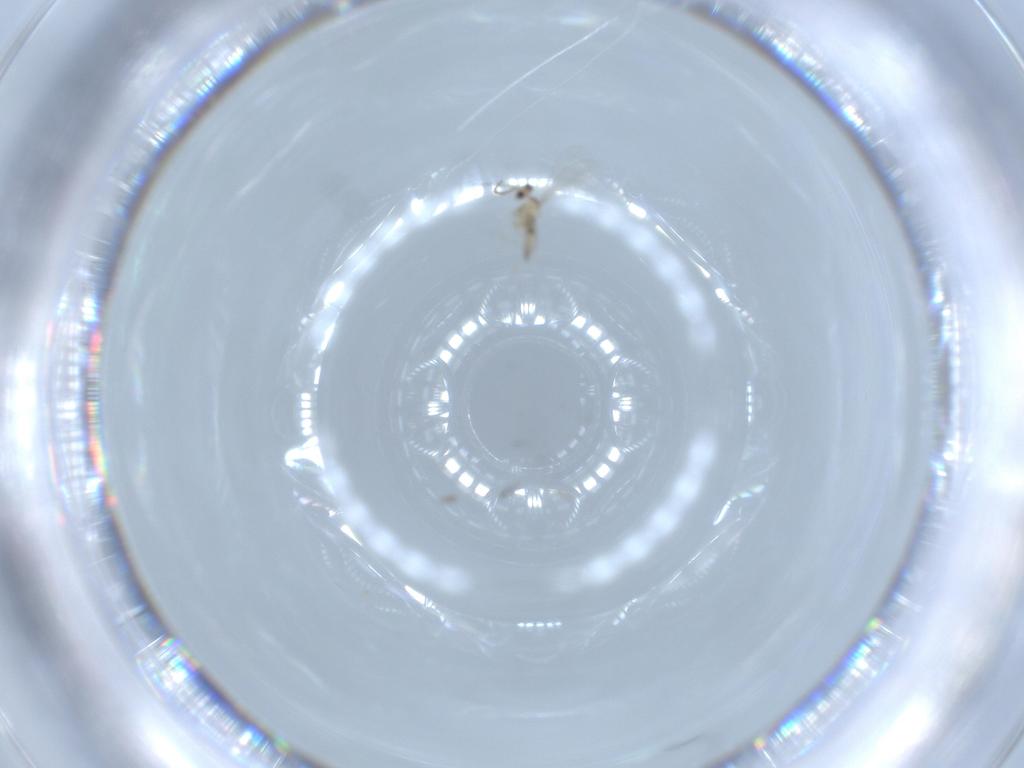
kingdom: Animalia
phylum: Arthropoda
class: Insecta
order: Diptera
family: Cecidomyiidae
